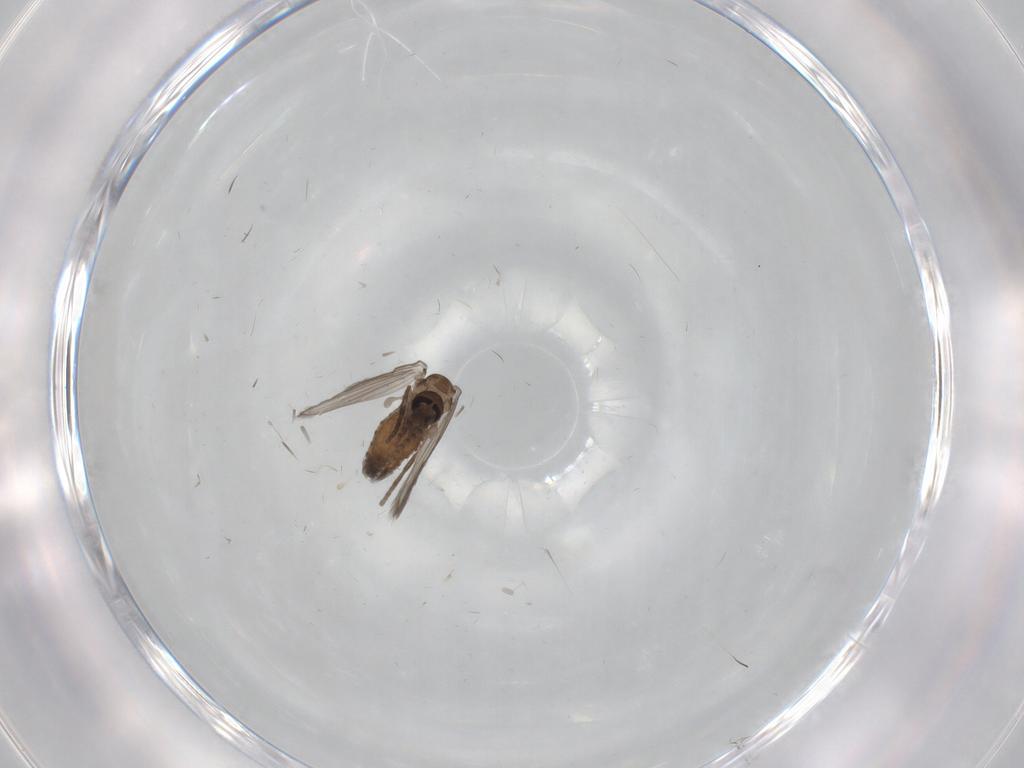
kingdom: Animalia
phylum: Arthropoda
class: Insecta
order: Diptera
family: Psychodidae
